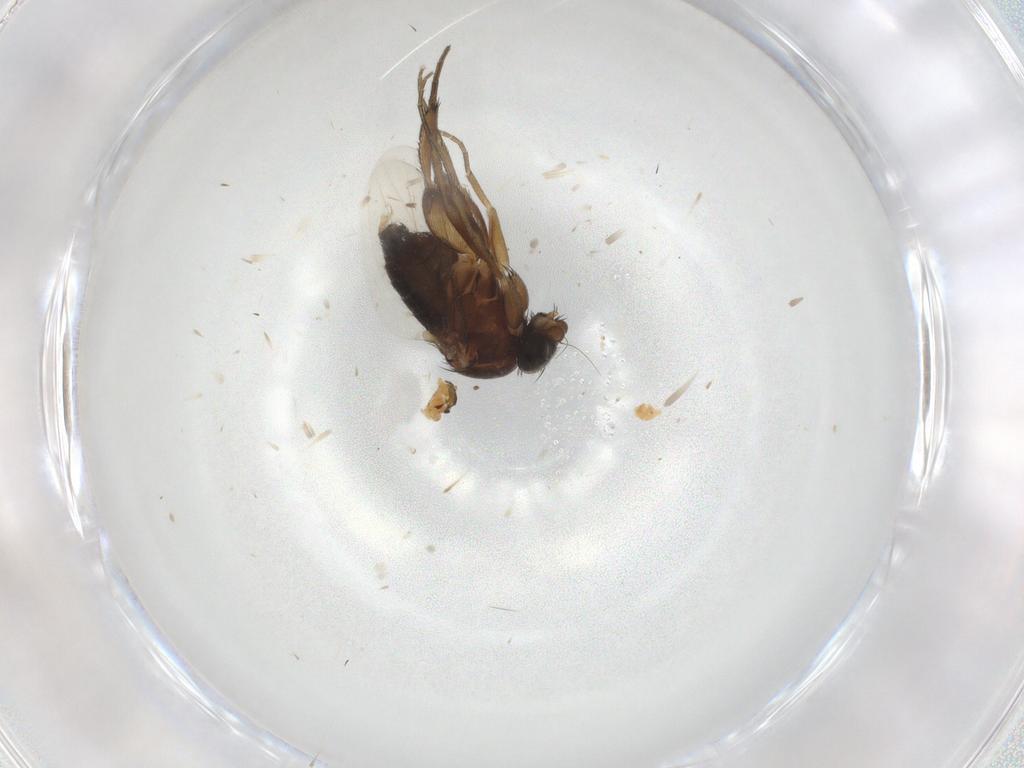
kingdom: Animalia
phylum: Arthropoda
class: Insecta
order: Diptera
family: Phoridae
